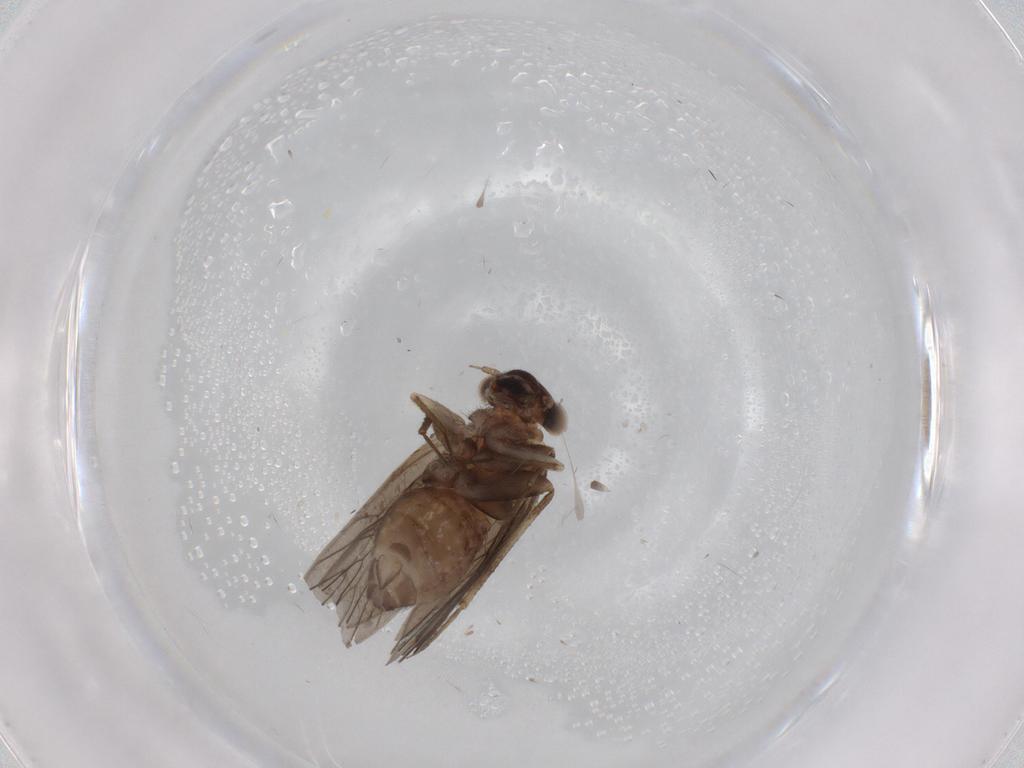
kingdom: Animalia
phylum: Arthropoda
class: Insecta
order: Psocodea
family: Lepidopsocidae
